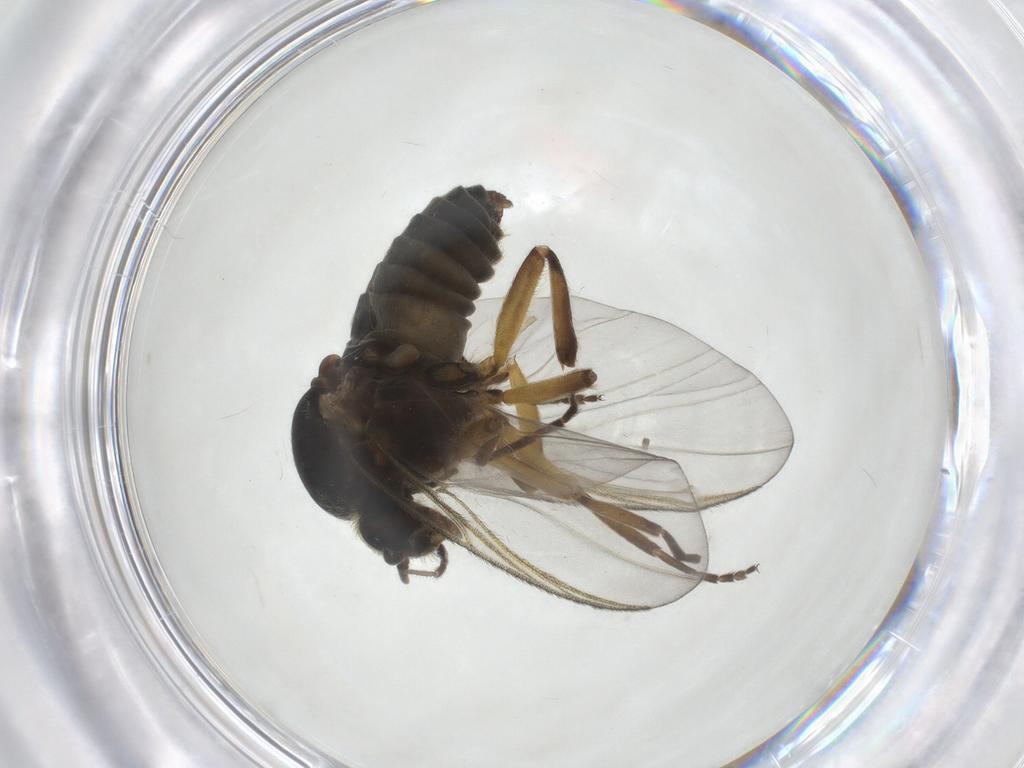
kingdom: Animalia
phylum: Arthropoda
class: Insecta
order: Diptera
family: Simuliidae
